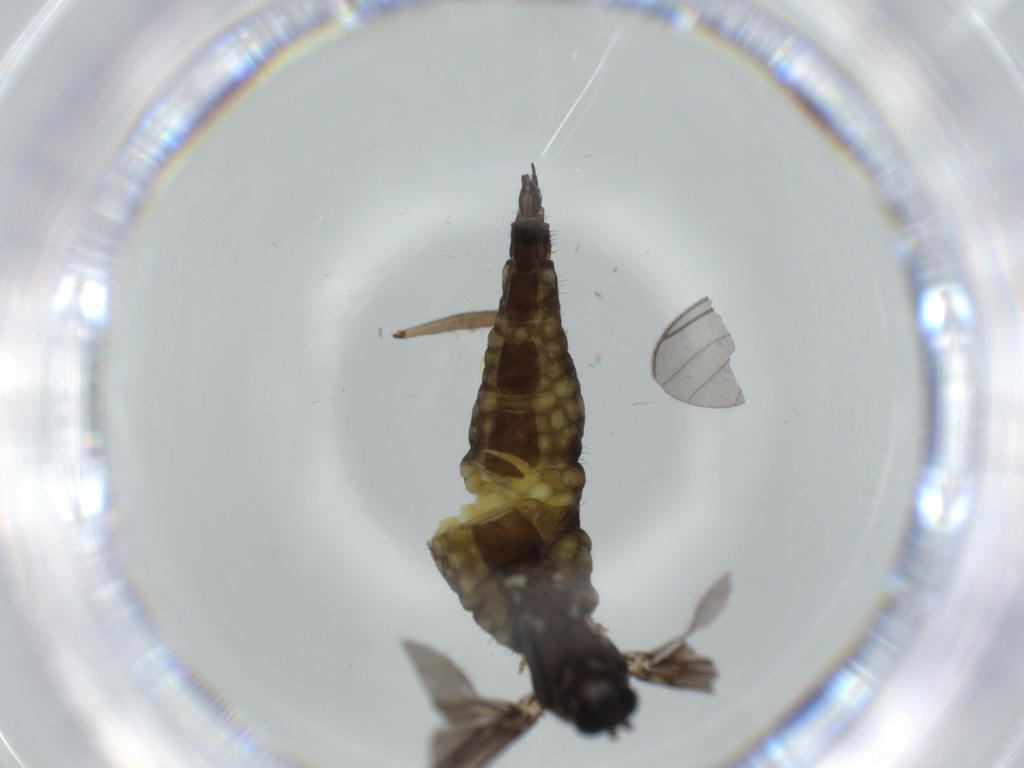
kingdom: Animalia
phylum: Arthropoda
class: Insecta
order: Diptera
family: Sciaridae
